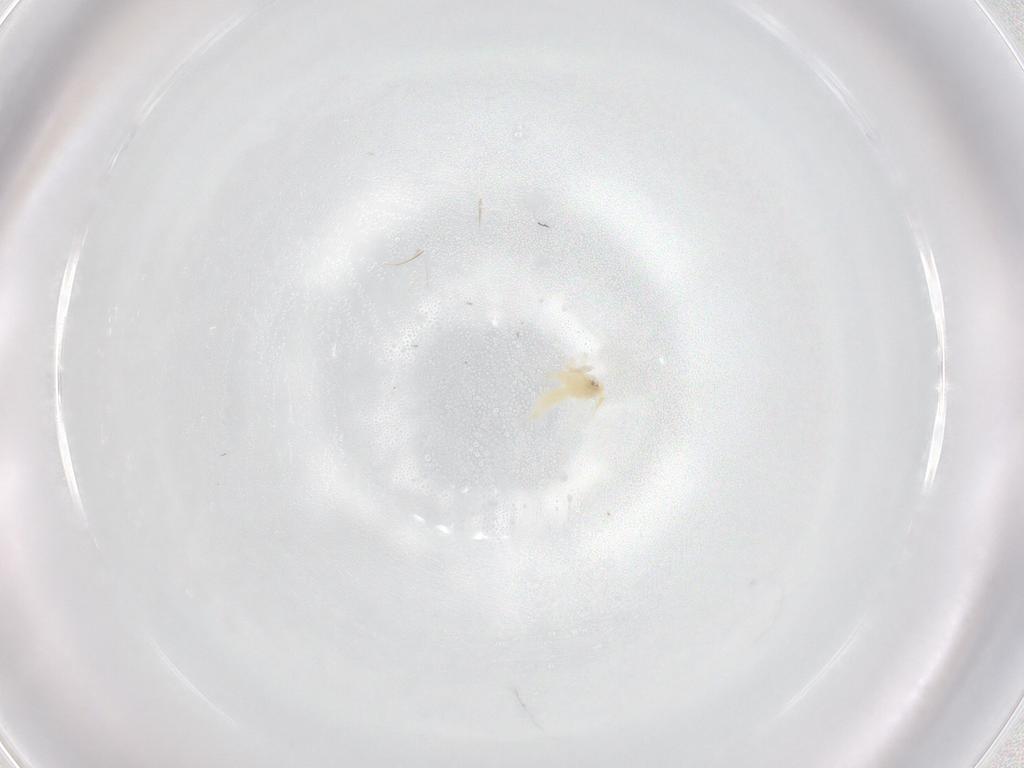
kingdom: Animalia
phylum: Arthropoda
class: Insecta
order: Hemiptera
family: Aleyrodidae
